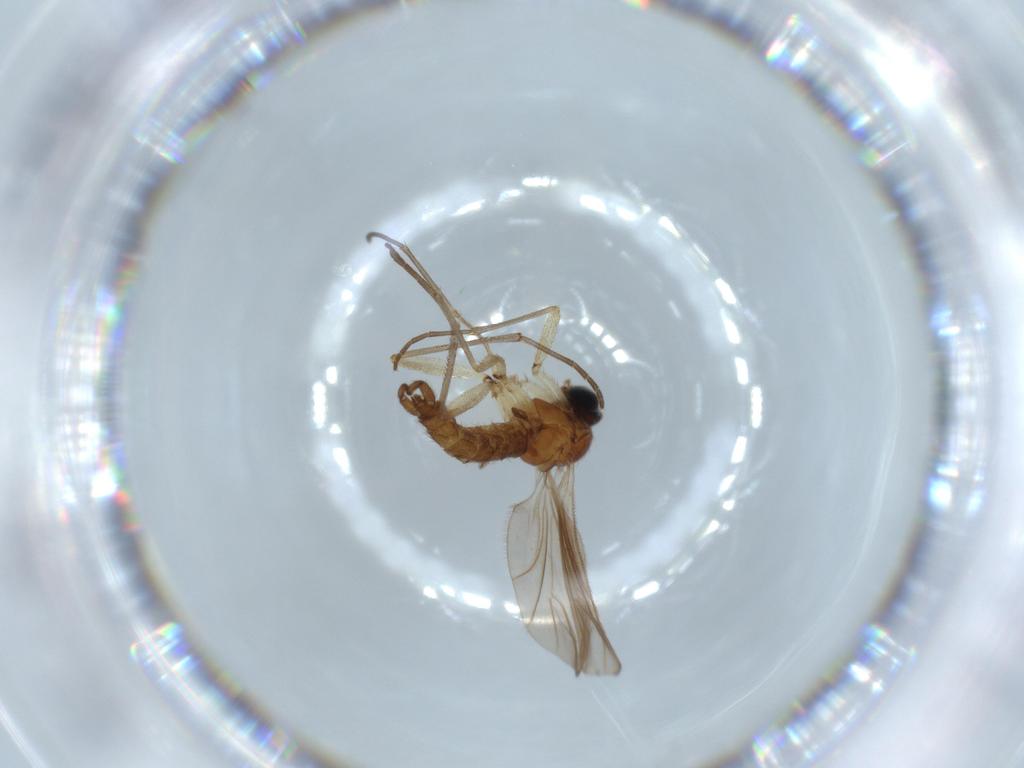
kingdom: Animalia
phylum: Arthropoda
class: Insecta
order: Diptera
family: Sciaridae
